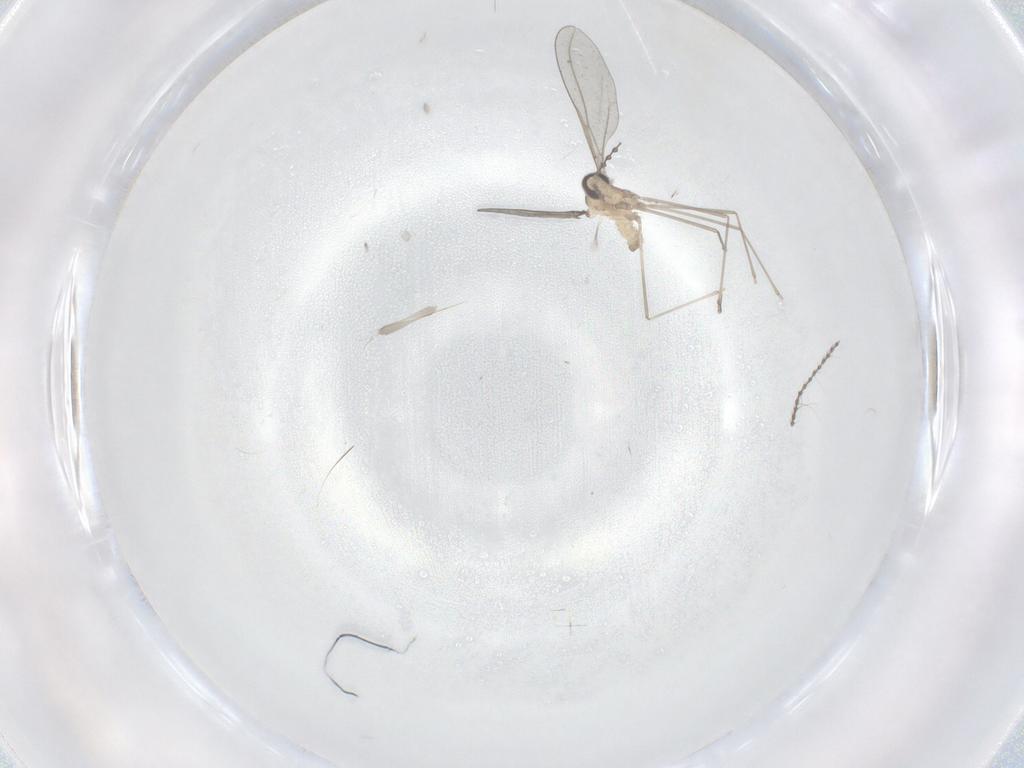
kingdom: Animalia
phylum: Arthropoda
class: Insecta
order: Diptera
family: Cecidomyiidae
